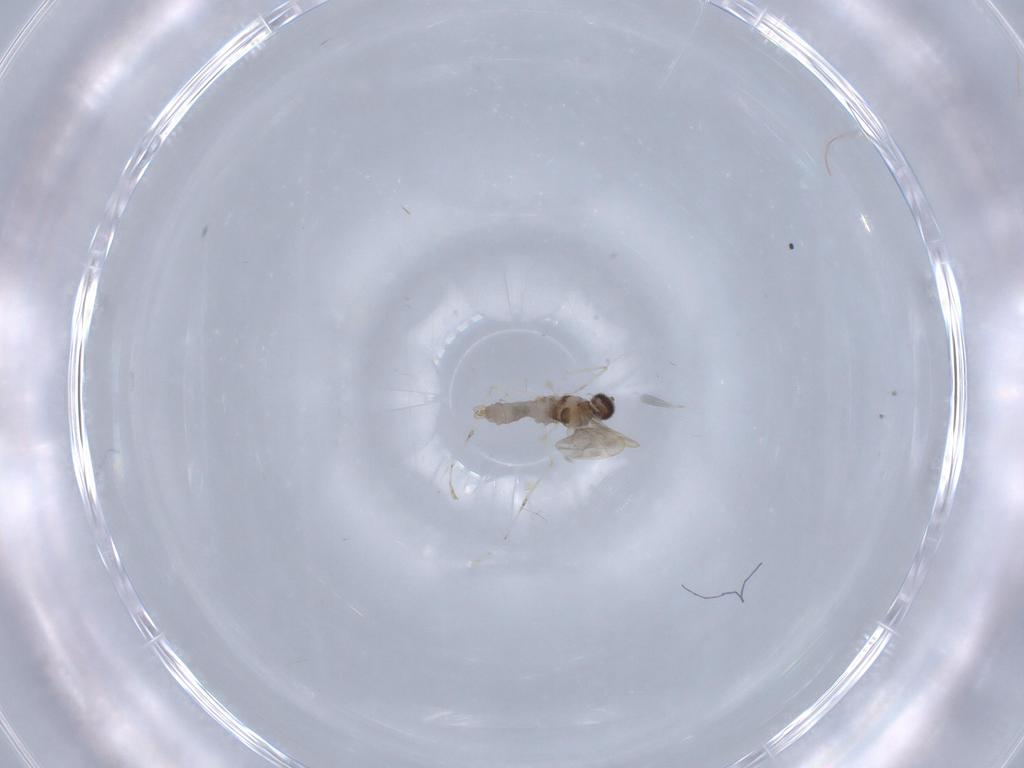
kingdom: Animalia
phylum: Arthropoda
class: Insecta
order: Diptera
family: Chironomidae
